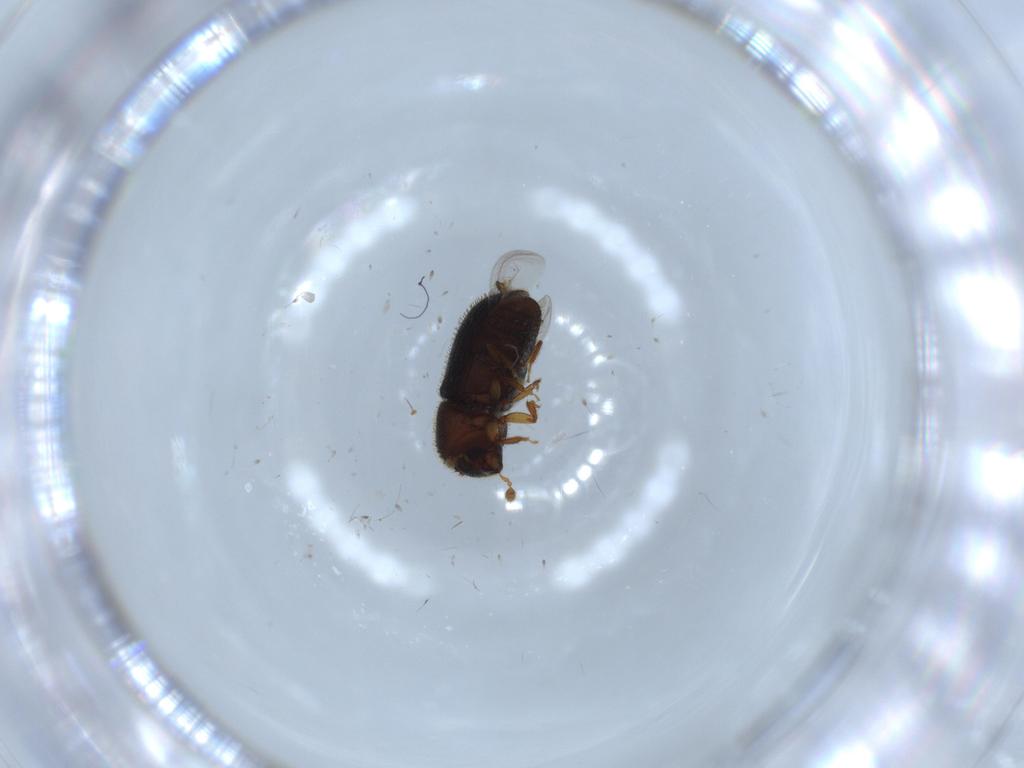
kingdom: Animalia
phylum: Arthropoda
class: Insecta
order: Coleoptera
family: Curculionidae
